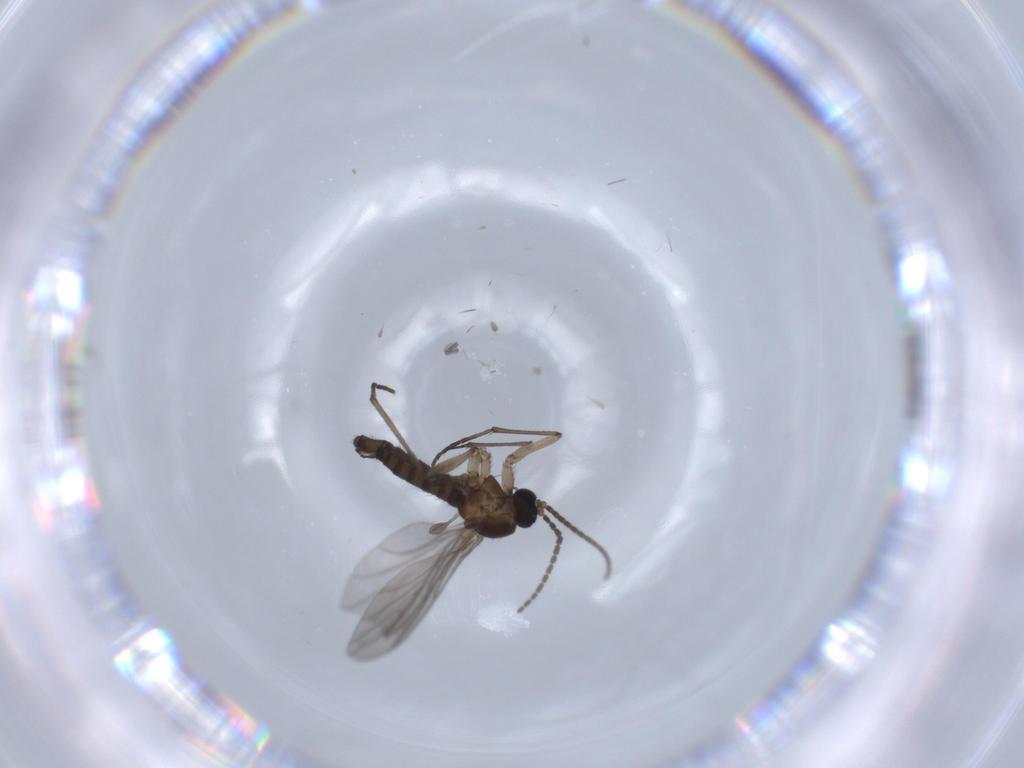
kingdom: Animalia
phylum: Arthropoda
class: Insecta
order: Diptera
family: Sciaridae
